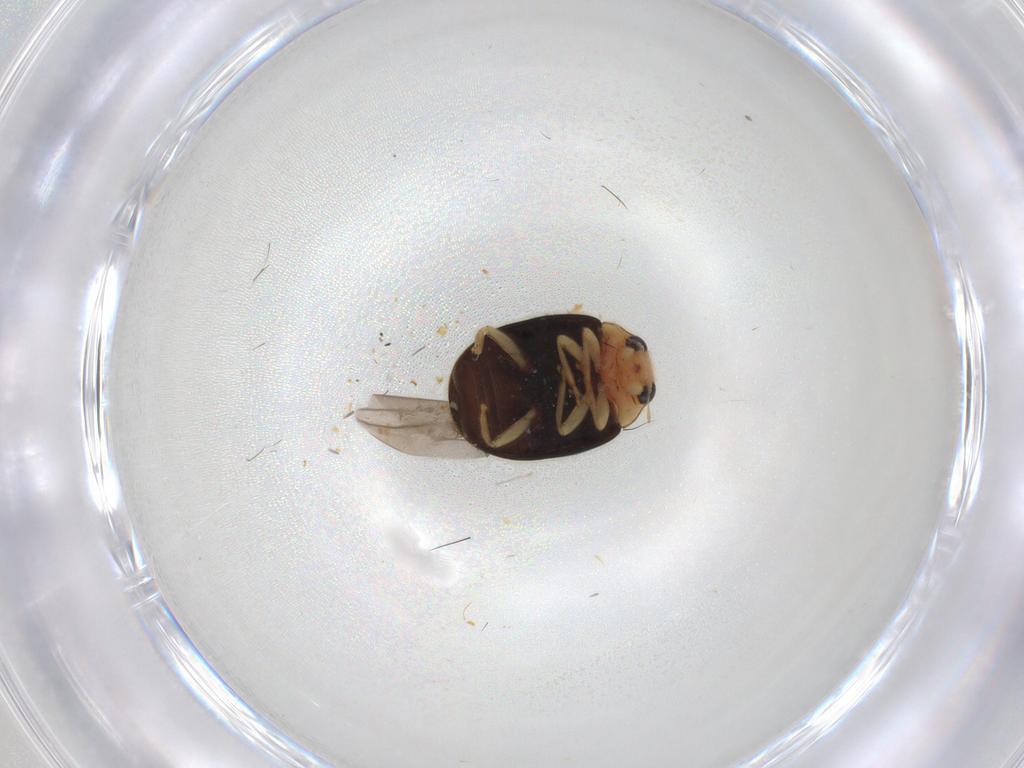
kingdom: Animalia
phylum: Arthropoda
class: Insecta
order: Coleoptera
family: Coccinellidae
